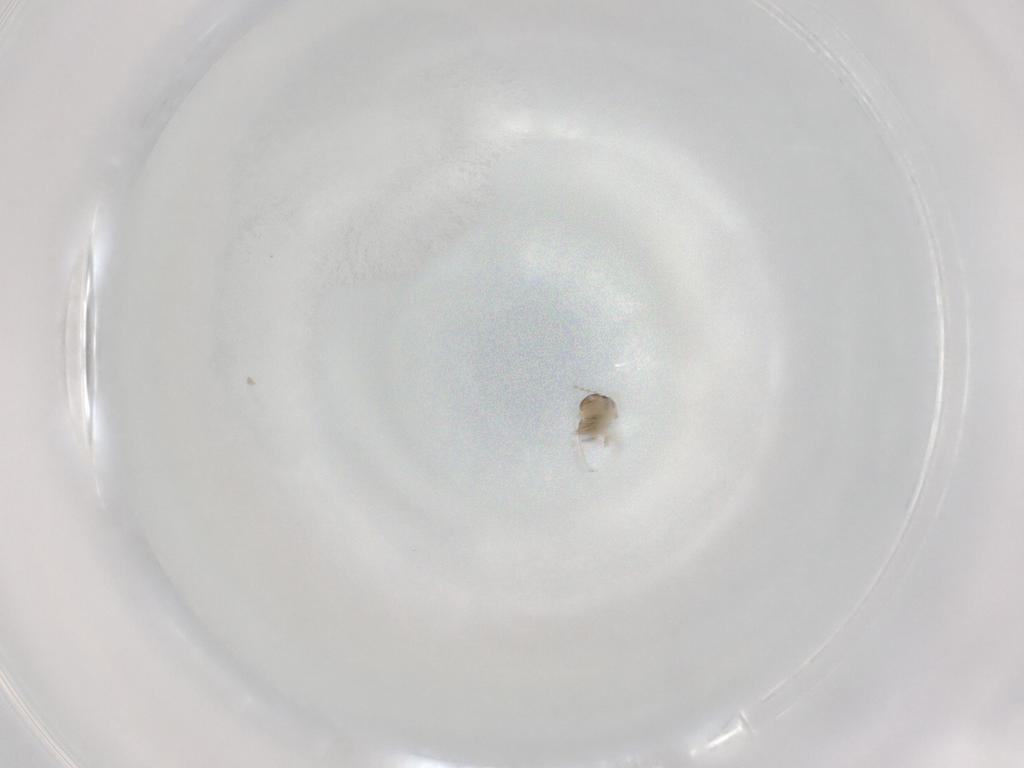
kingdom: Animalia
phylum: Arthropoda
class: Insecta
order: Diptera
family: Cecidomyiidae
